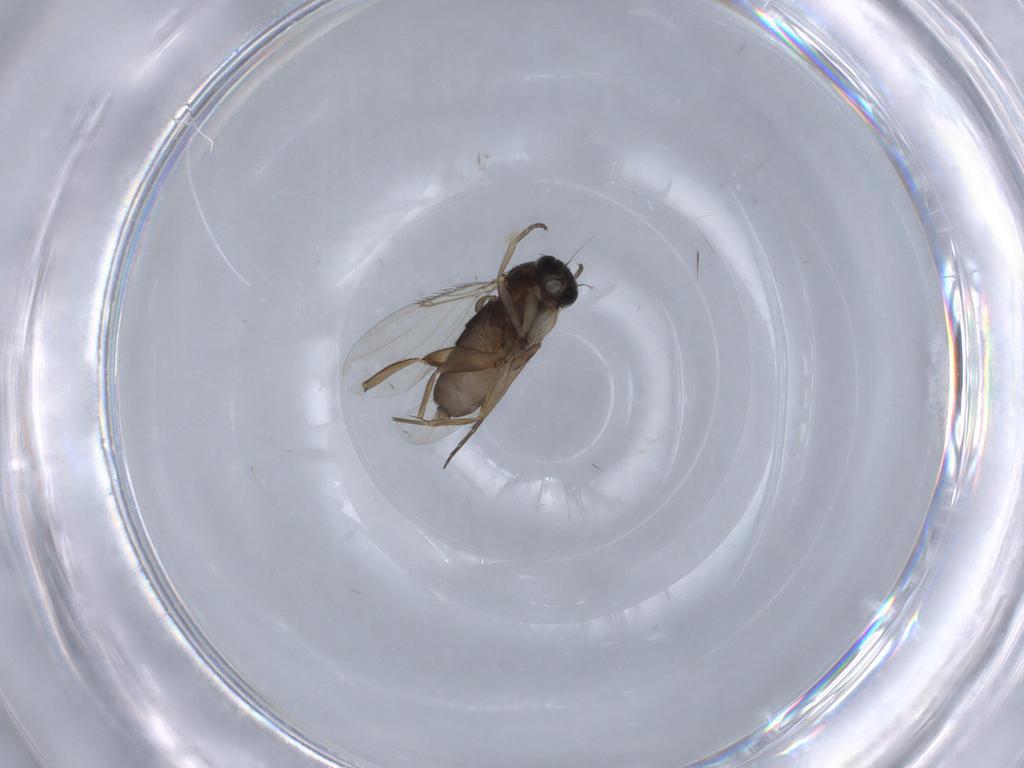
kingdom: Animalia
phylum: Arthropoda
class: Insecta
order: Diptera
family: Phoridae
